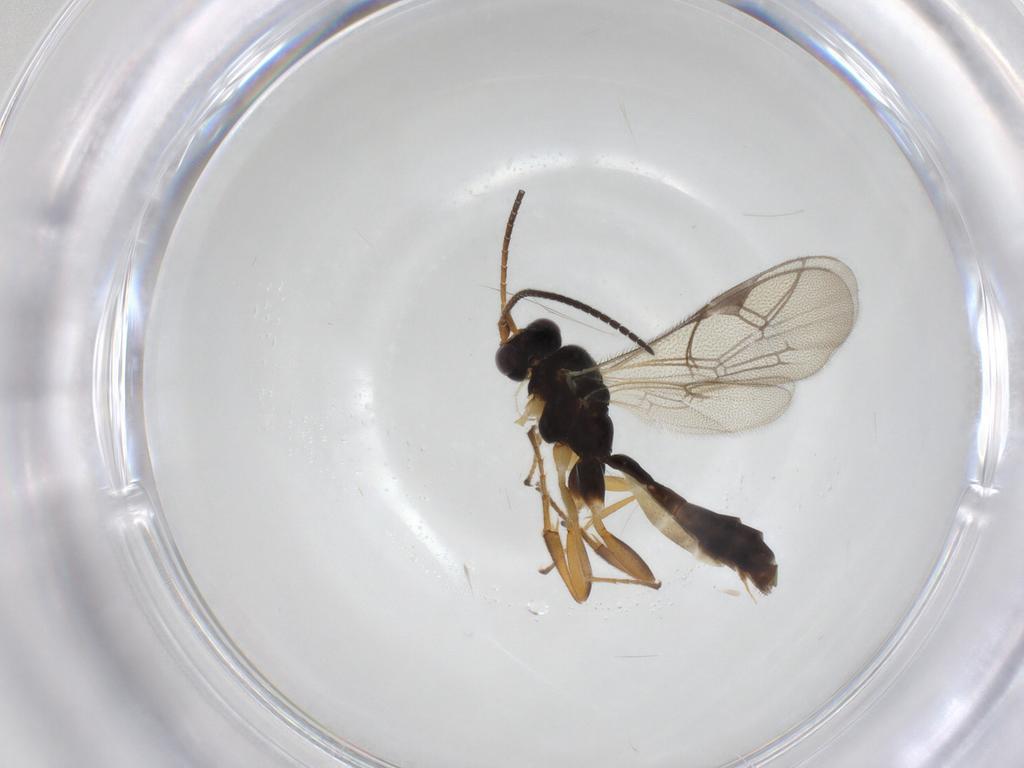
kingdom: Animalia
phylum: Arthropoda
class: Insecta
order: Hymenoptera
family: Ichneumonidae
